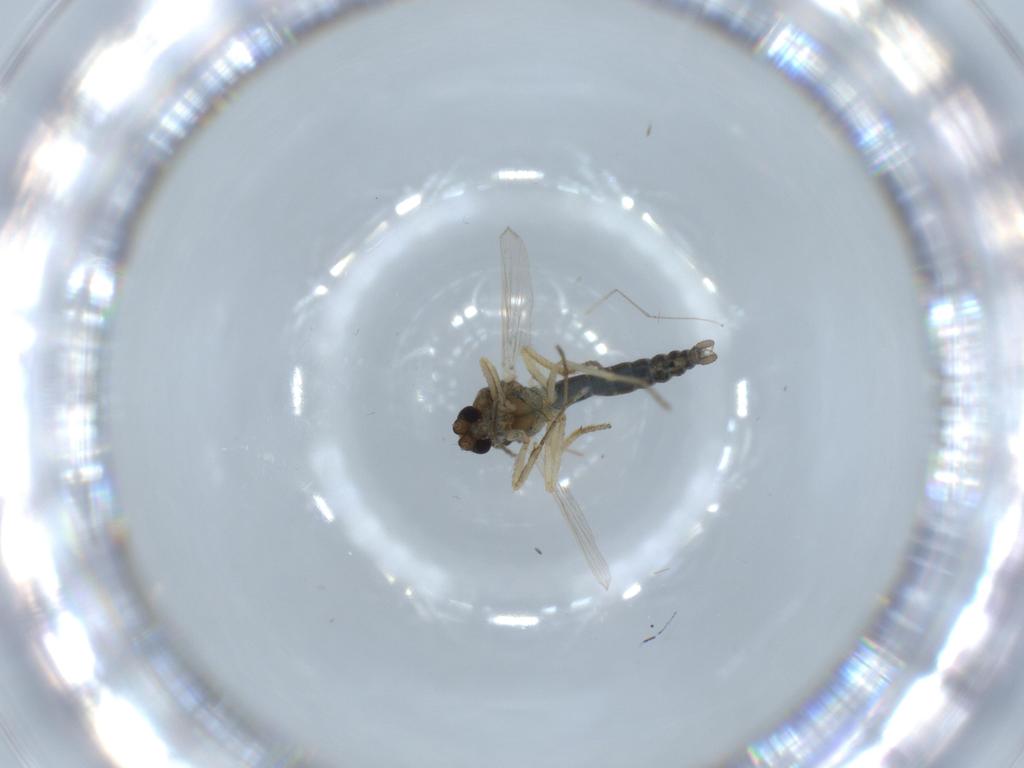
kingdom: Animalia
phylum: Arthropoda
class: Insecta
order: Diptera
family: Ceratopogonidae
